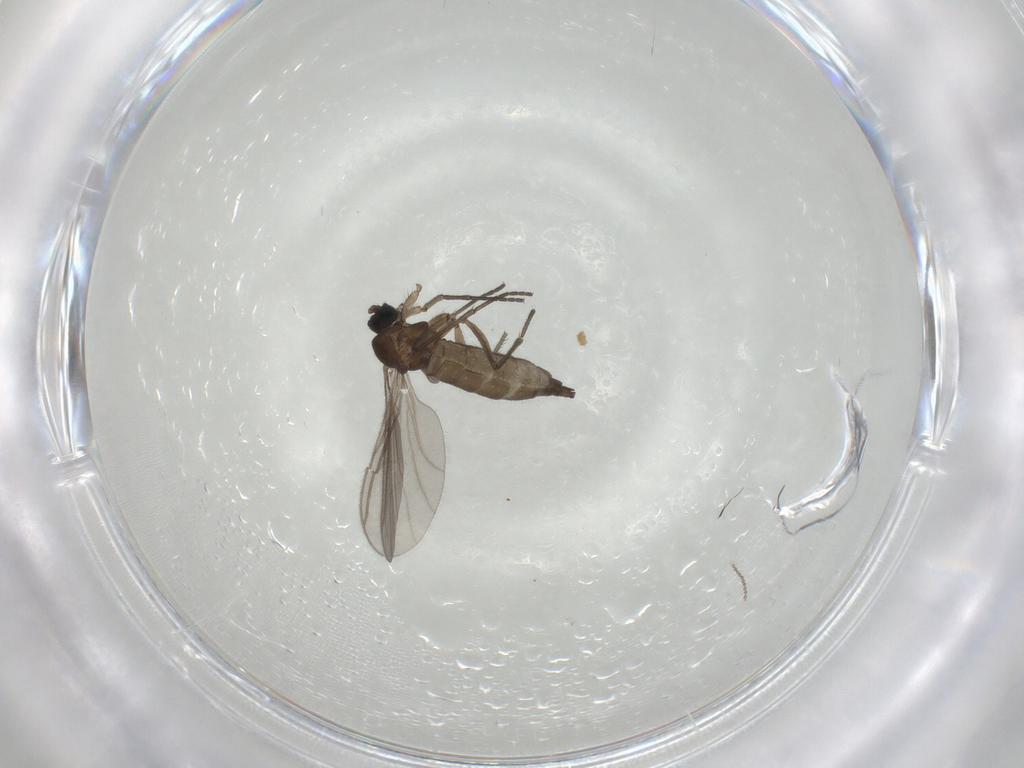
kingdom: Animalia
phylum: Arthropoda
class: Insecta
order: Diptera
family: Sciaridae
